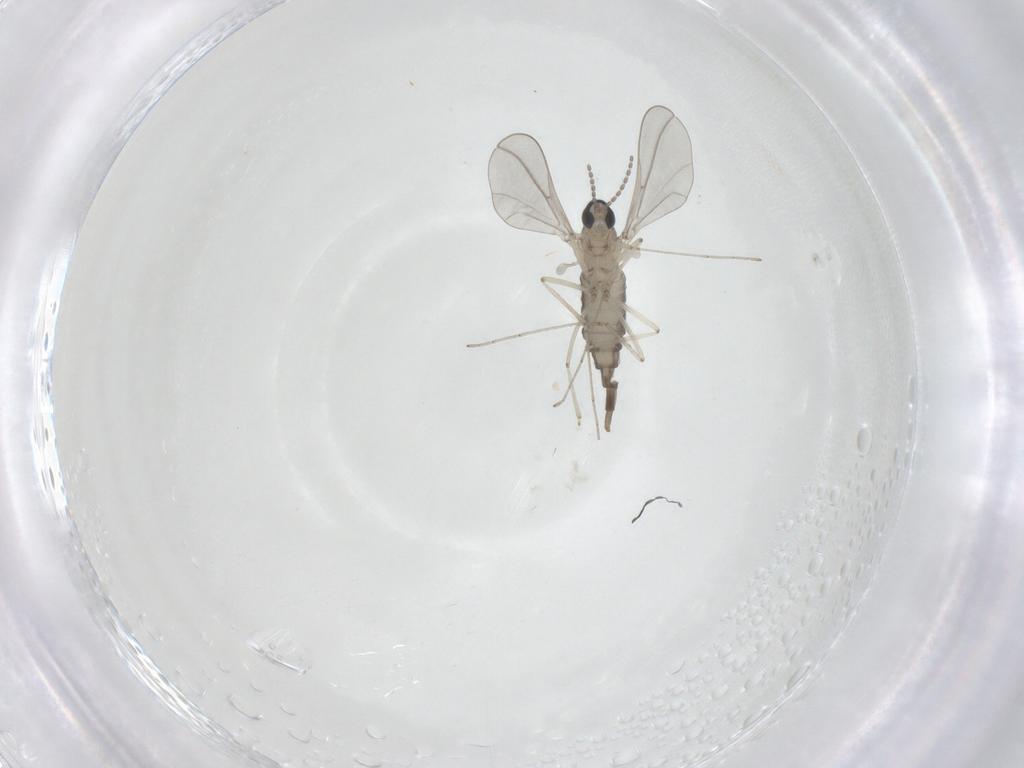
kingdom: Animalia
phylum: Arthropoda
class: Insecta
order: Diptera
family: Cecidomyiidae
